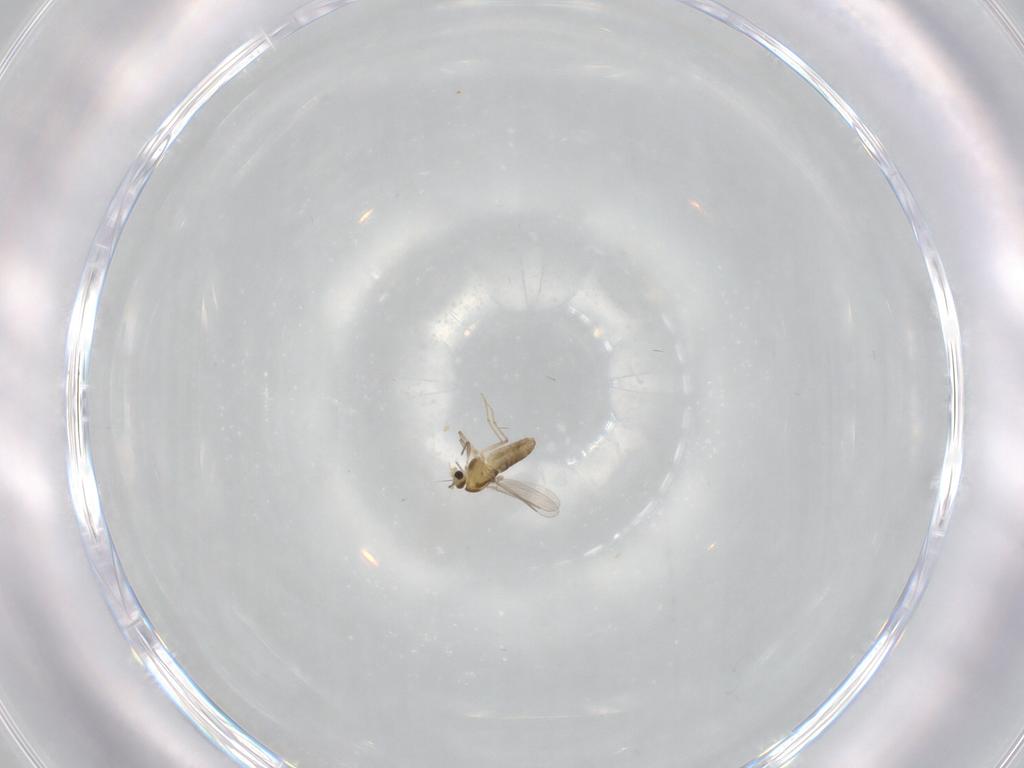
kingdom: Animalia
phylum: Arthropoda
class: Insecta
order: Diptera
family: Chironomidae
